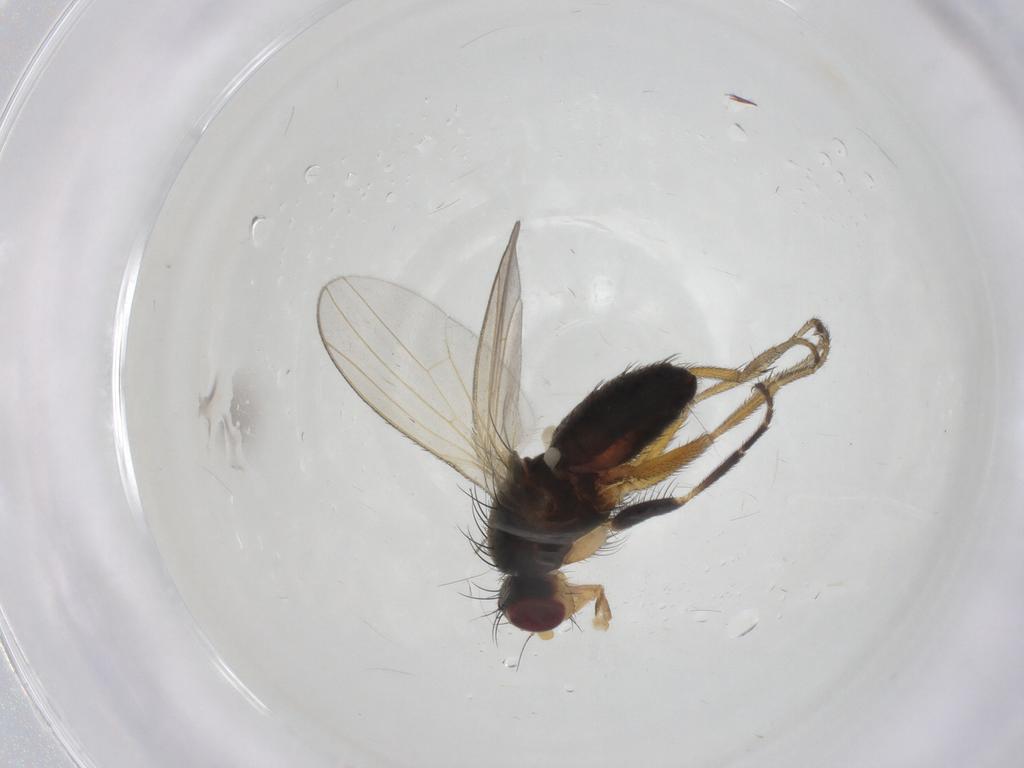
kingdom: Animalia
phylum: Arthropoda
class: Insecta
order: Diptera
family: Heleomyzidae
